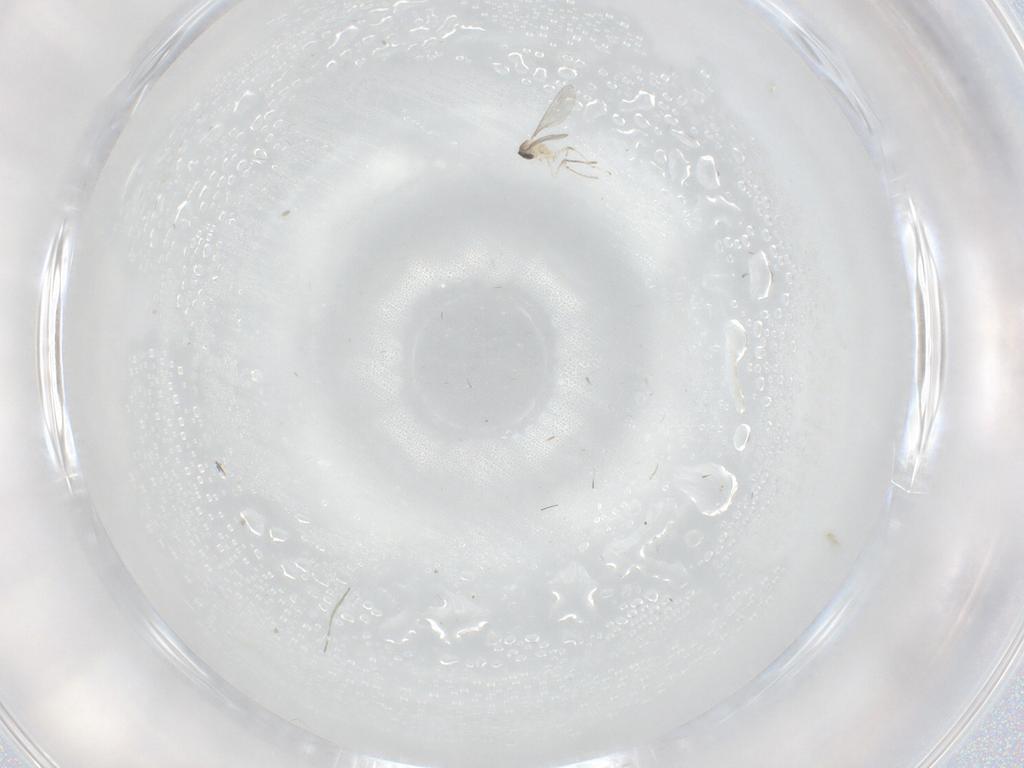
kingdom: Animalia
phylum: Arthropoda
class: Insecta
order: Diptera
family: Cecidomyiidae
